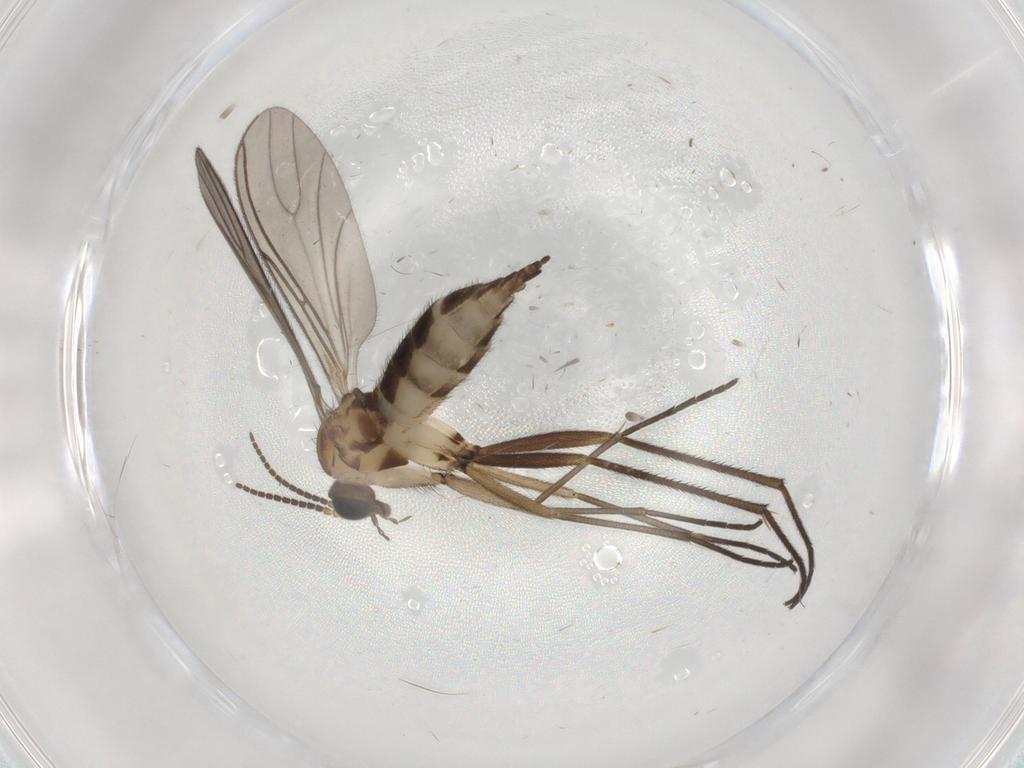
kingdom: Animalia
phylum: Arthropoda
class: Insecta
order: Diptera
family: Sciaridae
